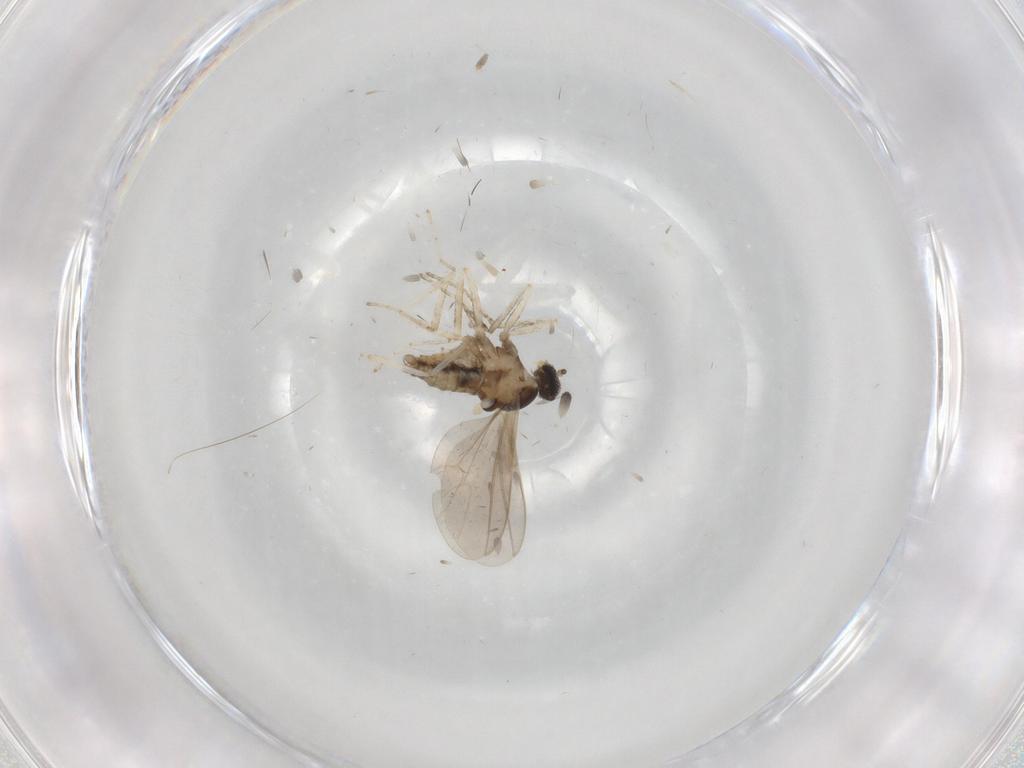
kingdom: Animalia
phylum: Arthropoda
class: Insecta
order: Diptera
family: Cecidomyiidae
